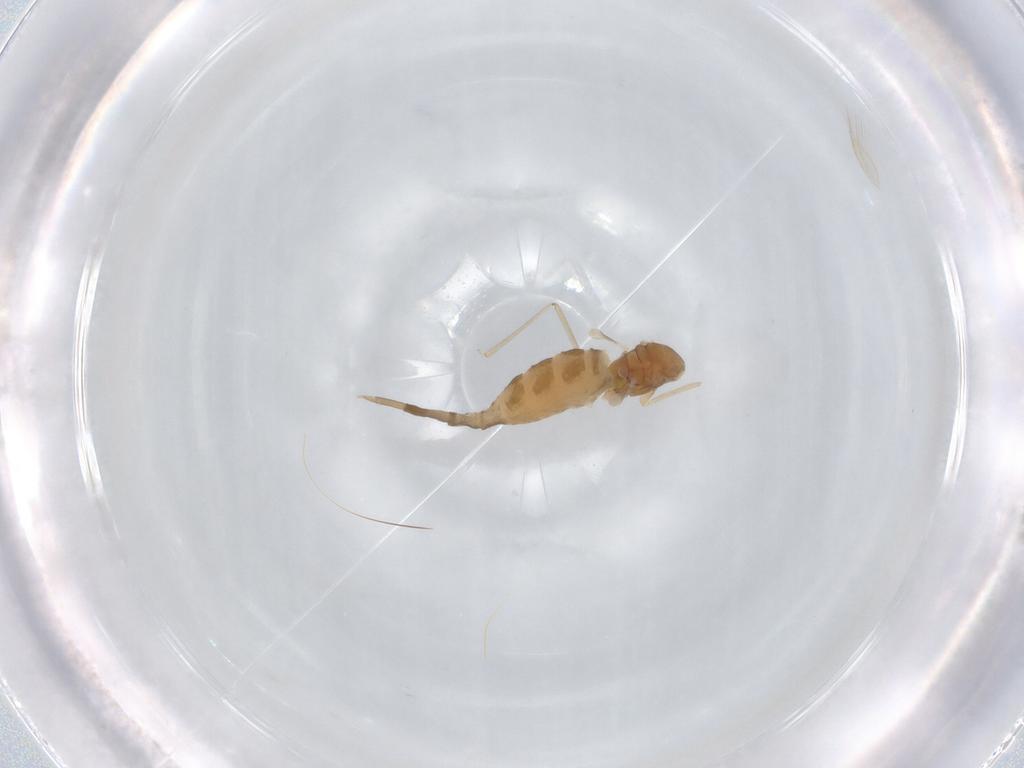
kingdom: Animalia
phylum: Arthropoda
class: Insecta
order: Diptera
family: Cecidomyiidae
